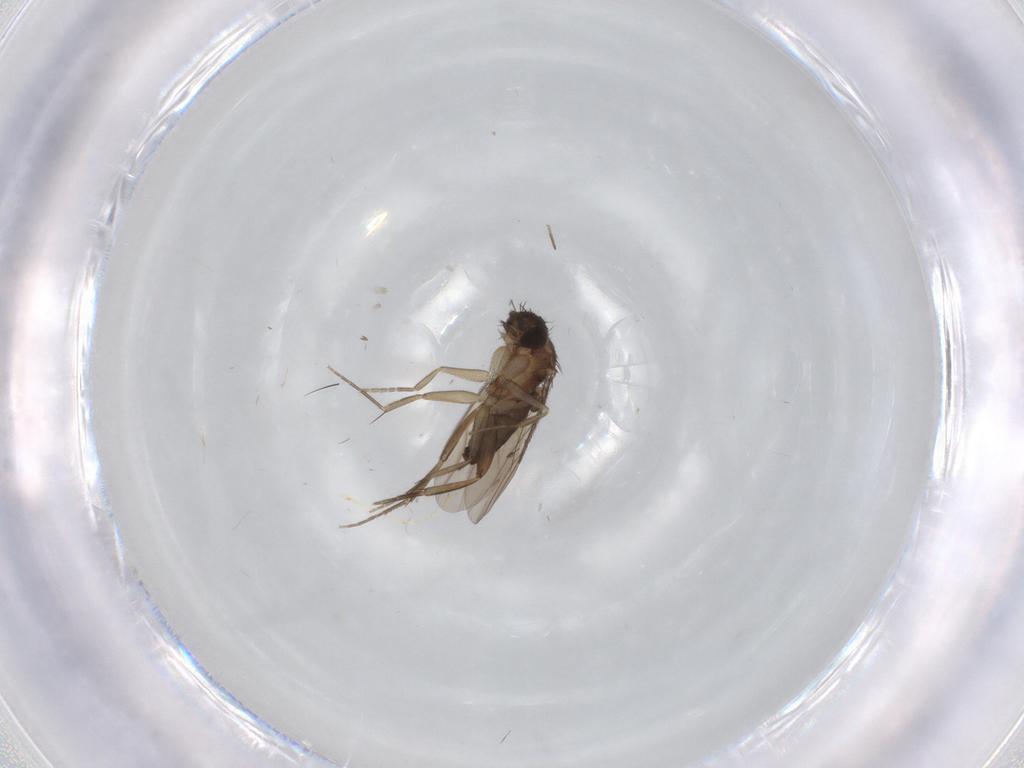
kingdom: Animalia
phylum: Arthropoda
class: Insecta
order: Diptera
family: Phoridae
